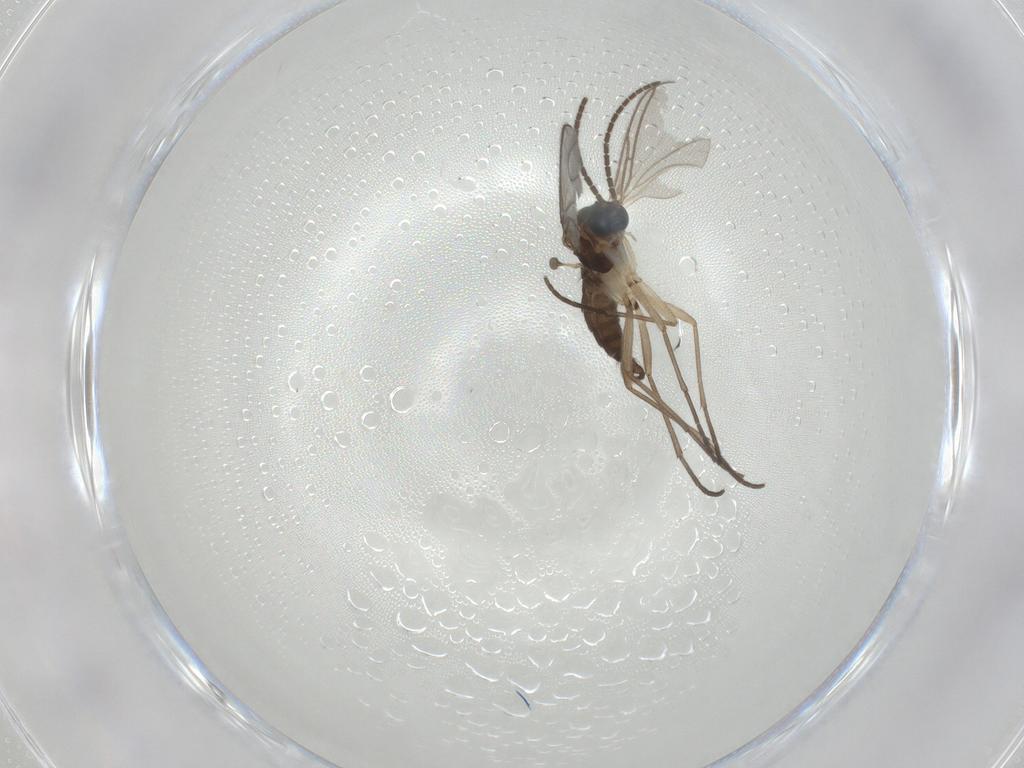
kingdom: Animalia
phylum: Arthropoda
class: Insecta
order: Diptera
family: Sciaridae
